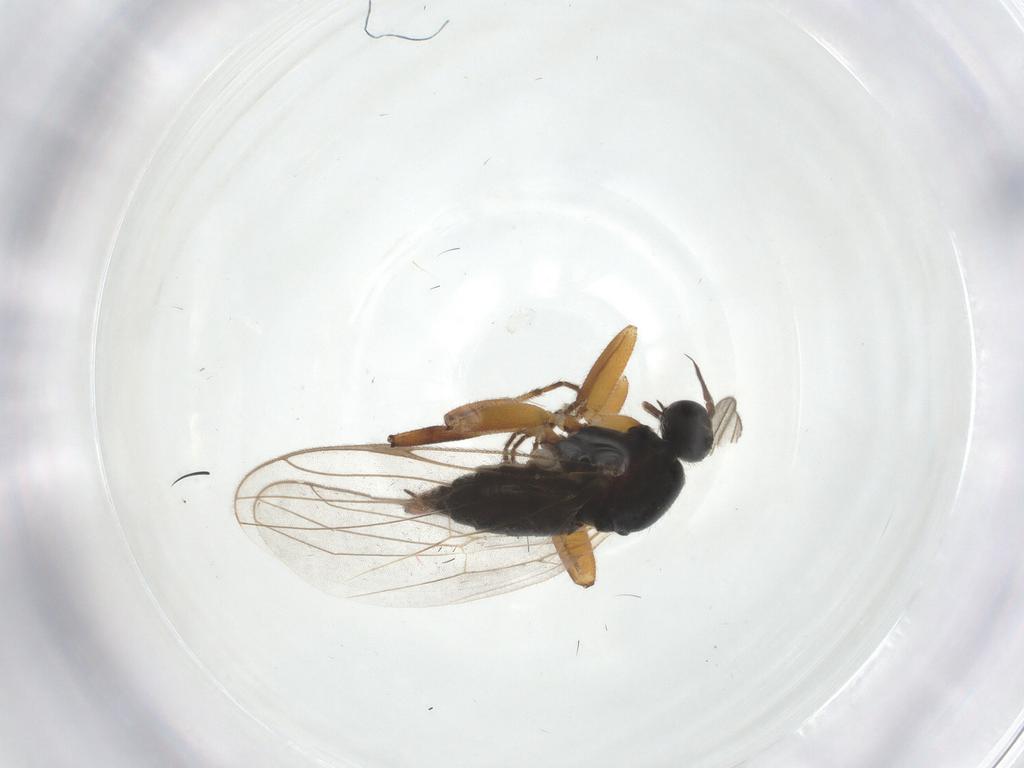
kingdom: Animalia
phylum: Arthropoda
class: Insecta
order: Diptera
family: Hybotidae
